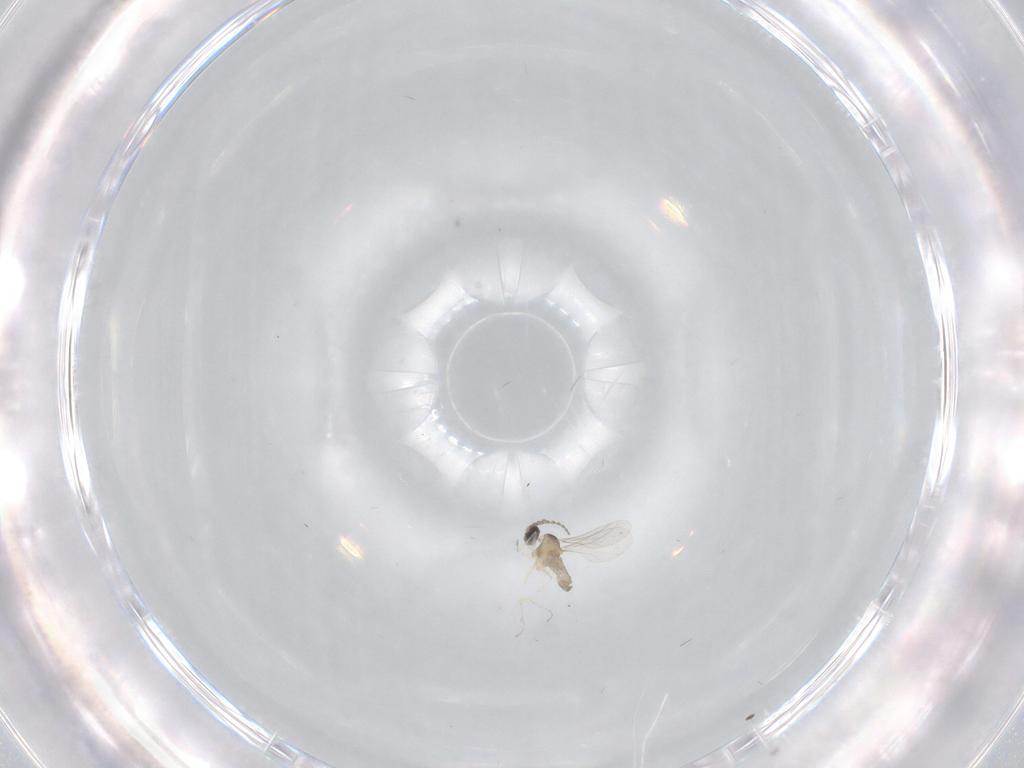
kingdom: Animalia
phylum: Arthropoda
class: Insecta
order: Diptera
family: Cecidomyiidae
